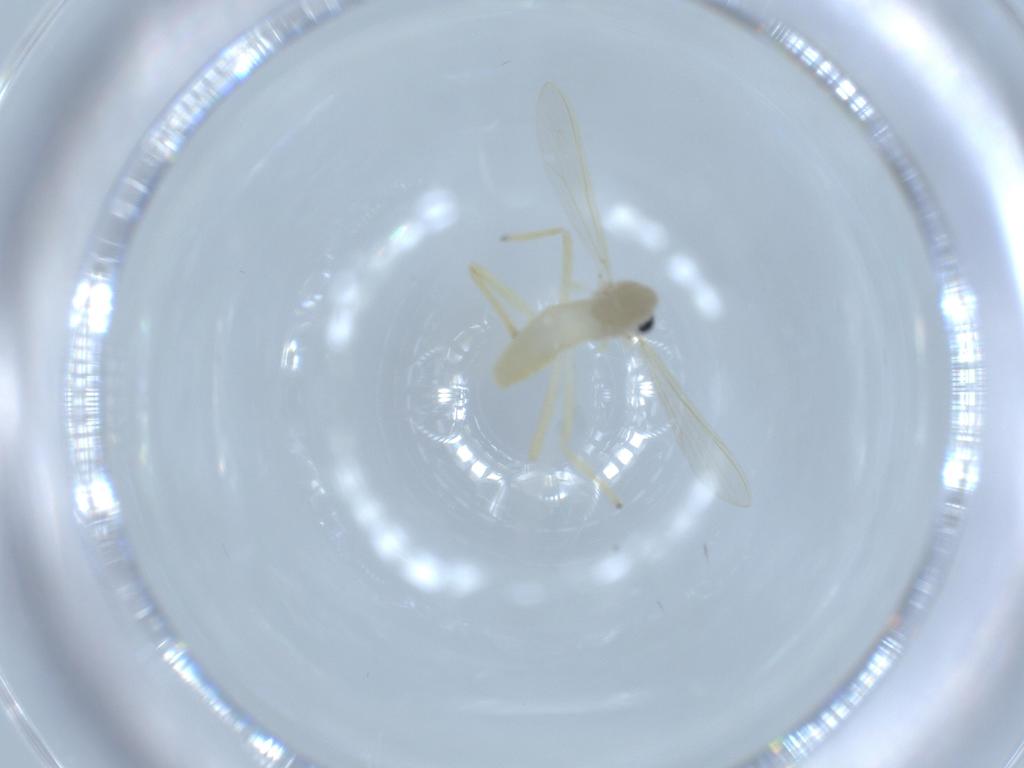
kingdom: Animalia
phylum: Arthropoda
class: Insecta
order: Diptera
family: Chironomidae
